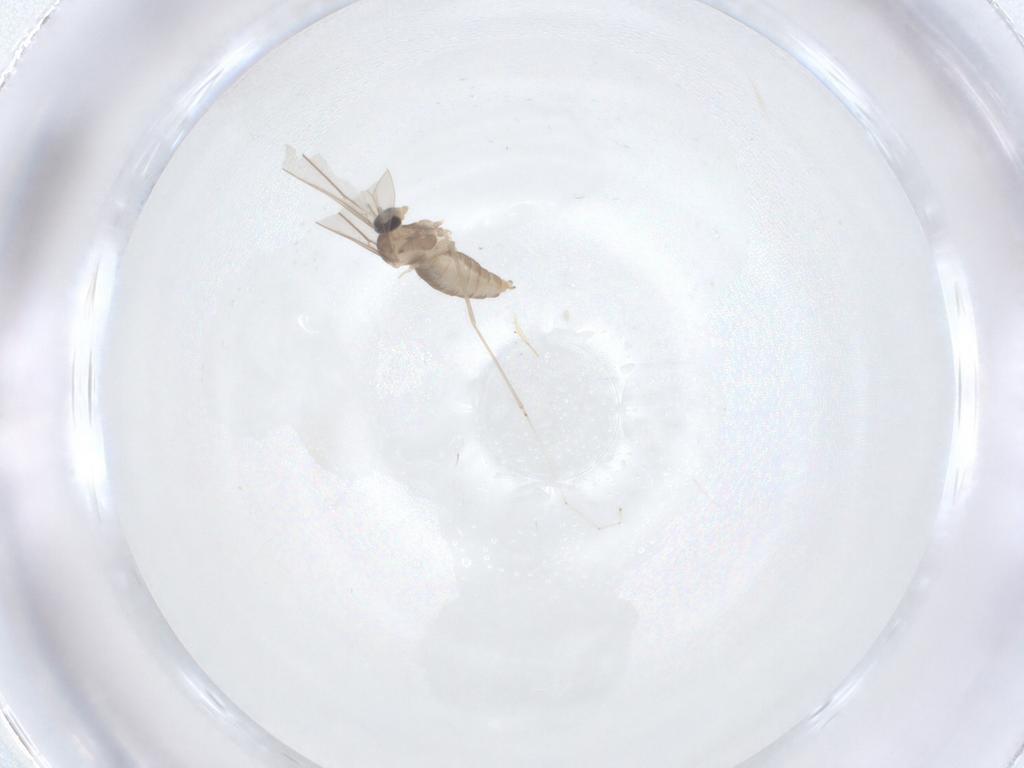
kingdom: Animalia
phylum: Arthropoda
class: Insecta
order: Diptera
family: Cecidomyiidae
